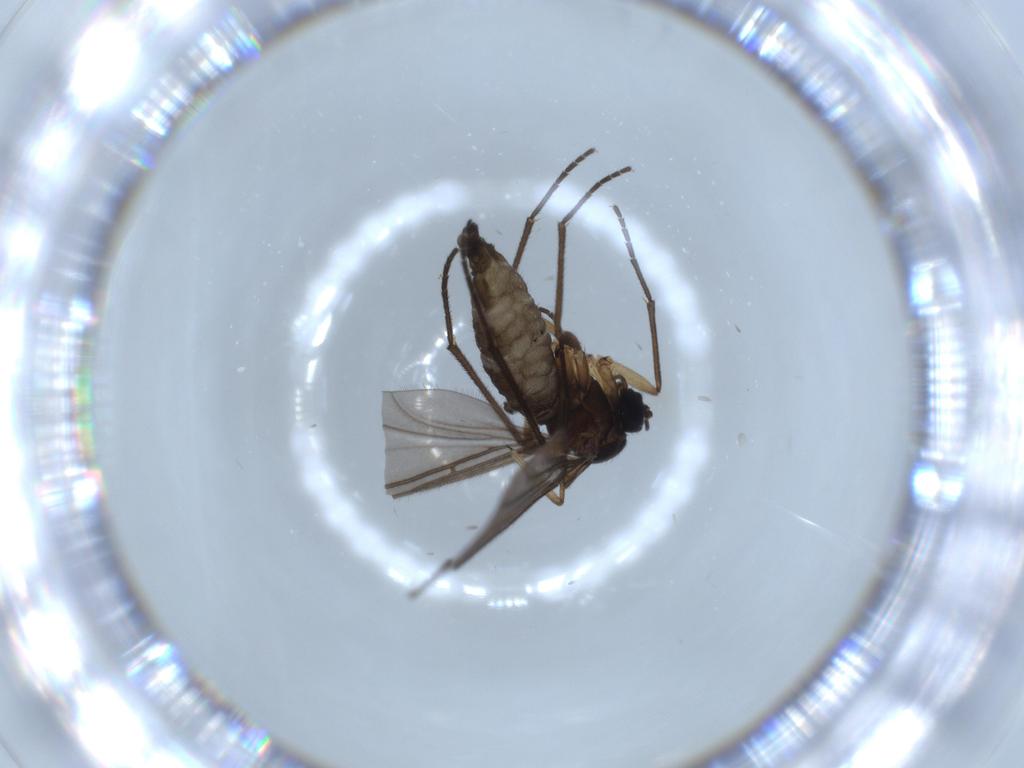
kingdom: Animalia
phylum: Arthropoda
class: Insecta
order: Diptera
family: Sciaridae
